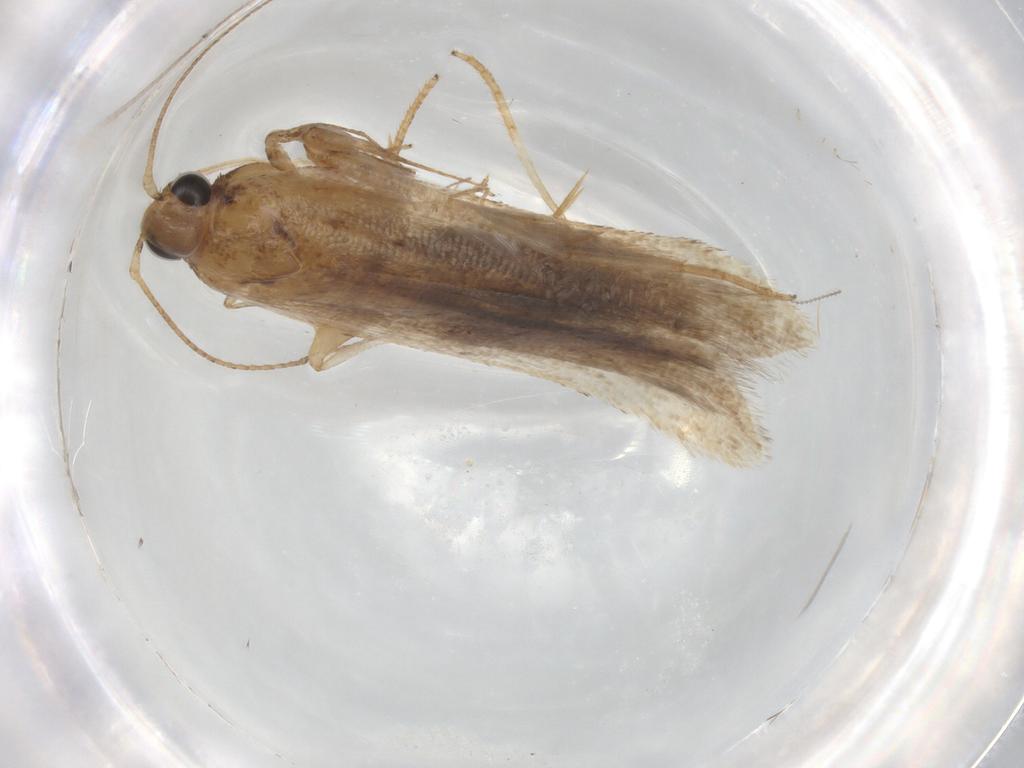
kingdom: Animalia
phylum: Arthropoda
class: Insecta
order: Lepidoptera
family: Gelechiidae
